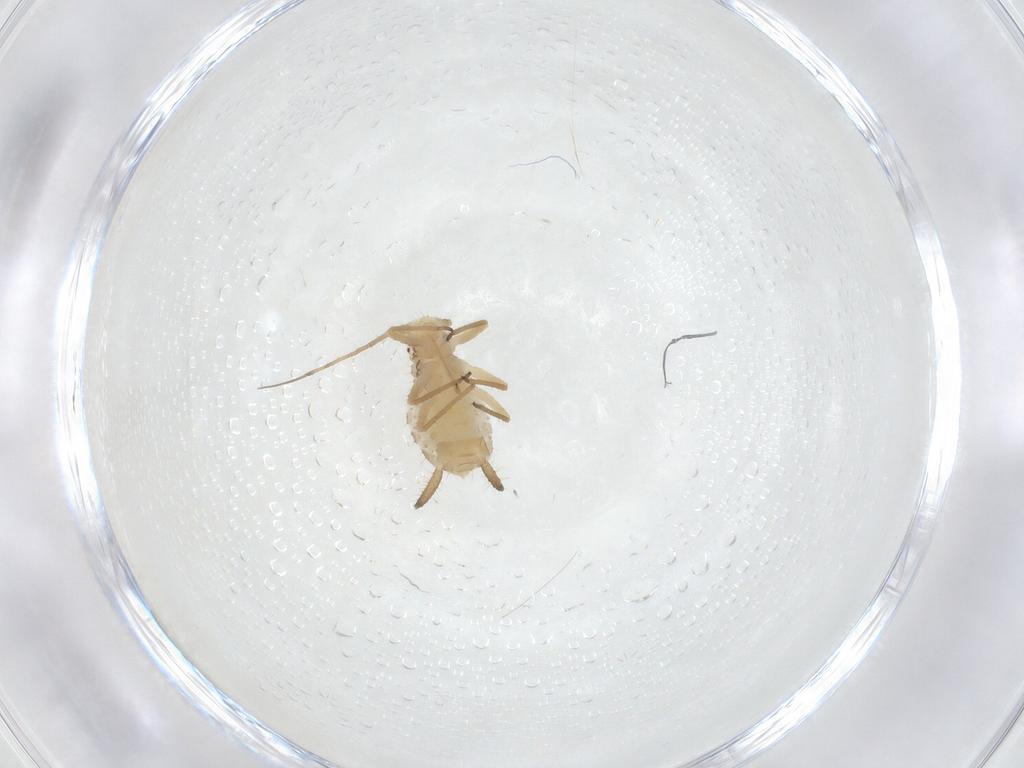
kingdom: Animalia
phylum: Arthropoda
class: Insecta
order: Hemiptera
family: Aphididae
